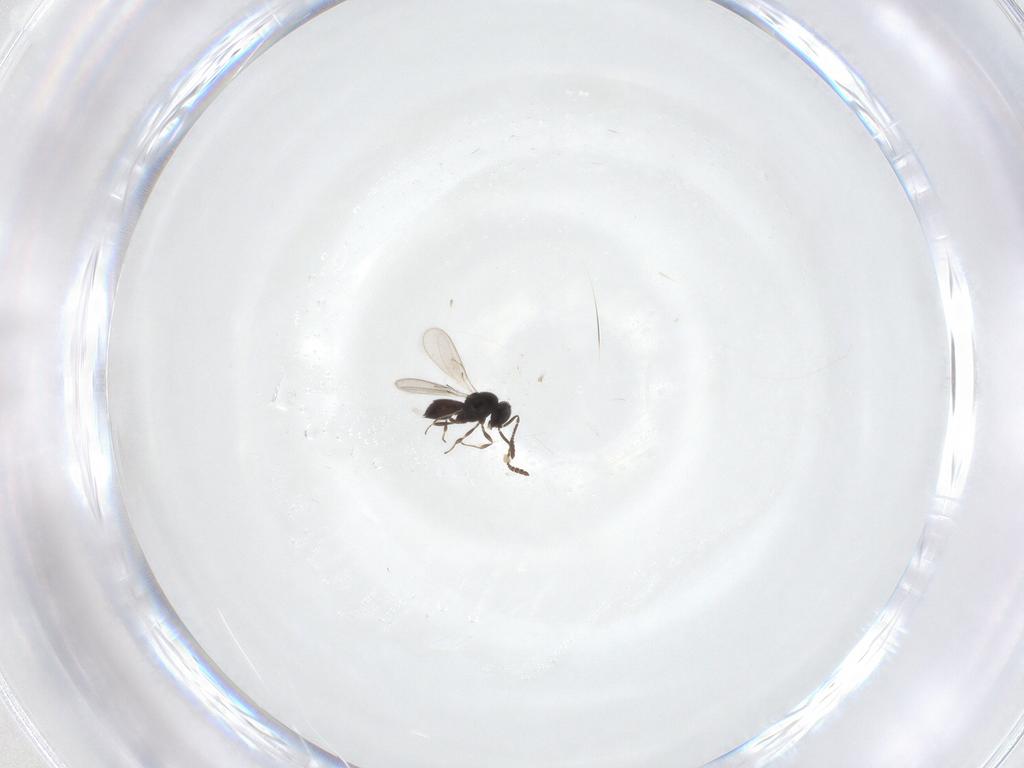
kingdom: Animalia
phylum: Arthropoda
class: Insecta
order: Hymenoptera
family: Scelionidae
